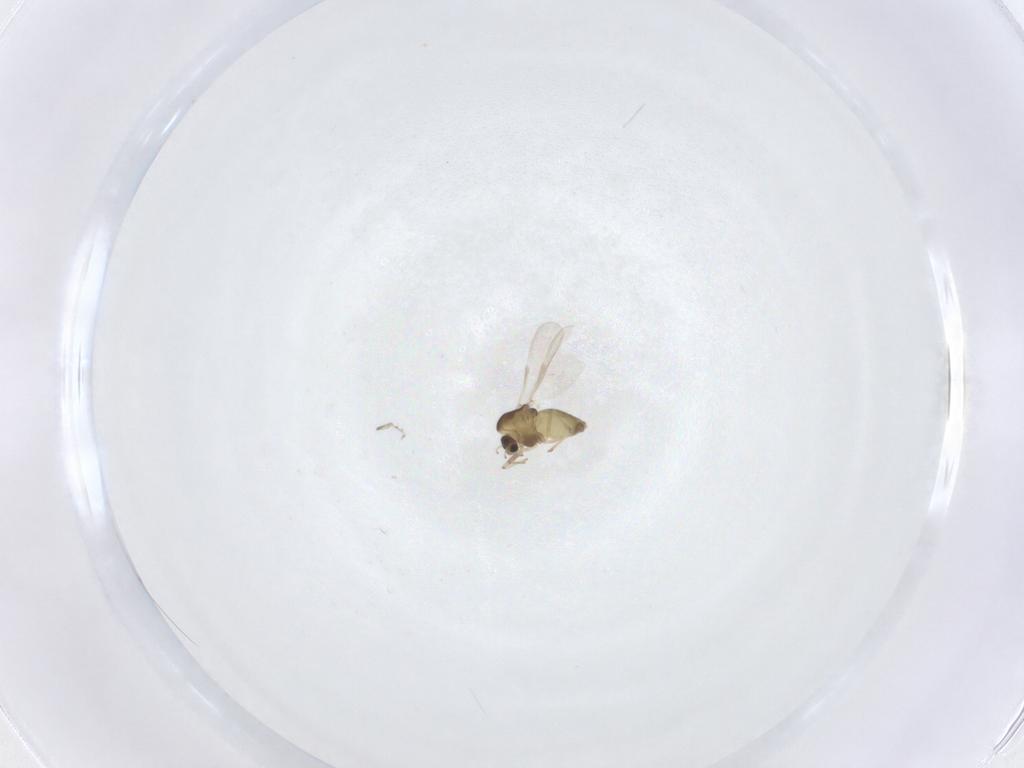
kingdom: Animalia
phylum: Arthropoda
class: Insecta
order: Diptera
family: Chironomidae
